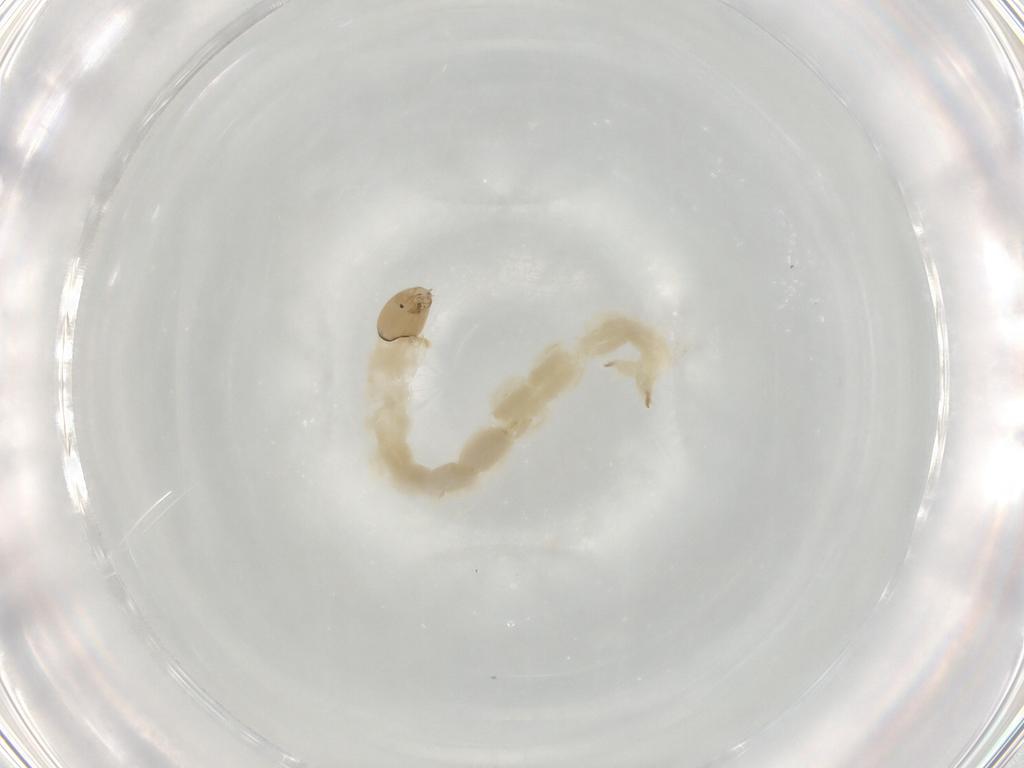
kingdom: Animalia
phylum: Arthropoda
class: Insecta
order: Diptera
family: Chironomidae
